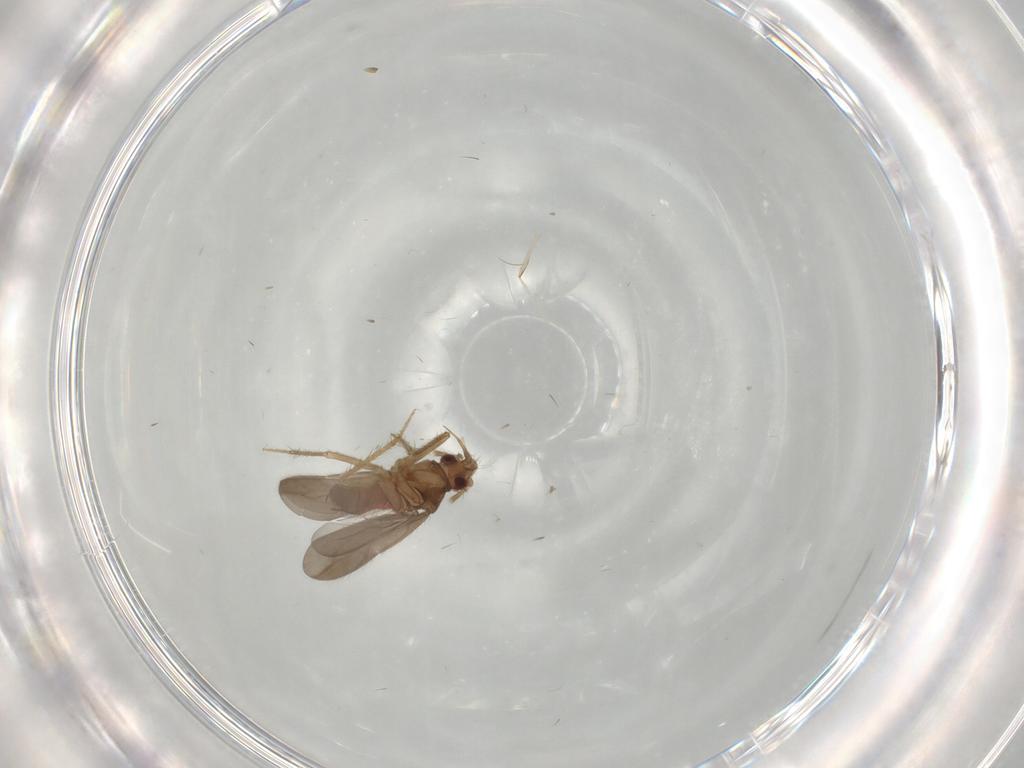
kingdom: Animalia
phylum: Arthropoda
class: Insecta
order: Hemiptera
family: Cicadellidae
